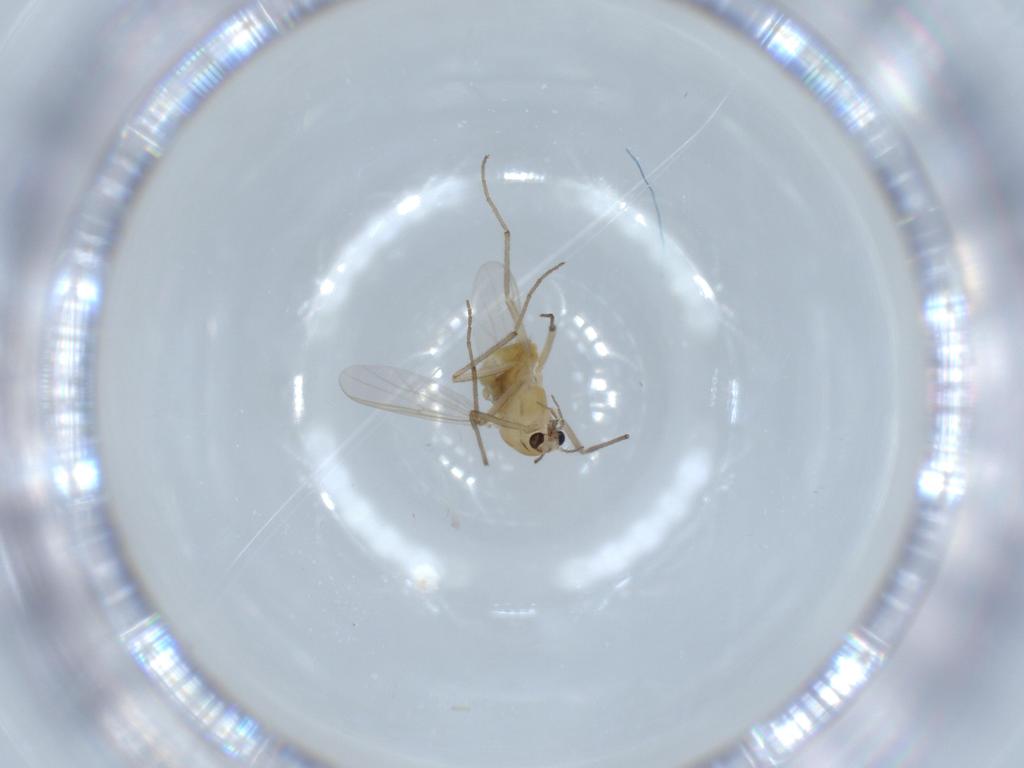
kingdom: Animalia
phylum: Arthropoda
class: Insecta
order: Diptera
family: Chironomidae
